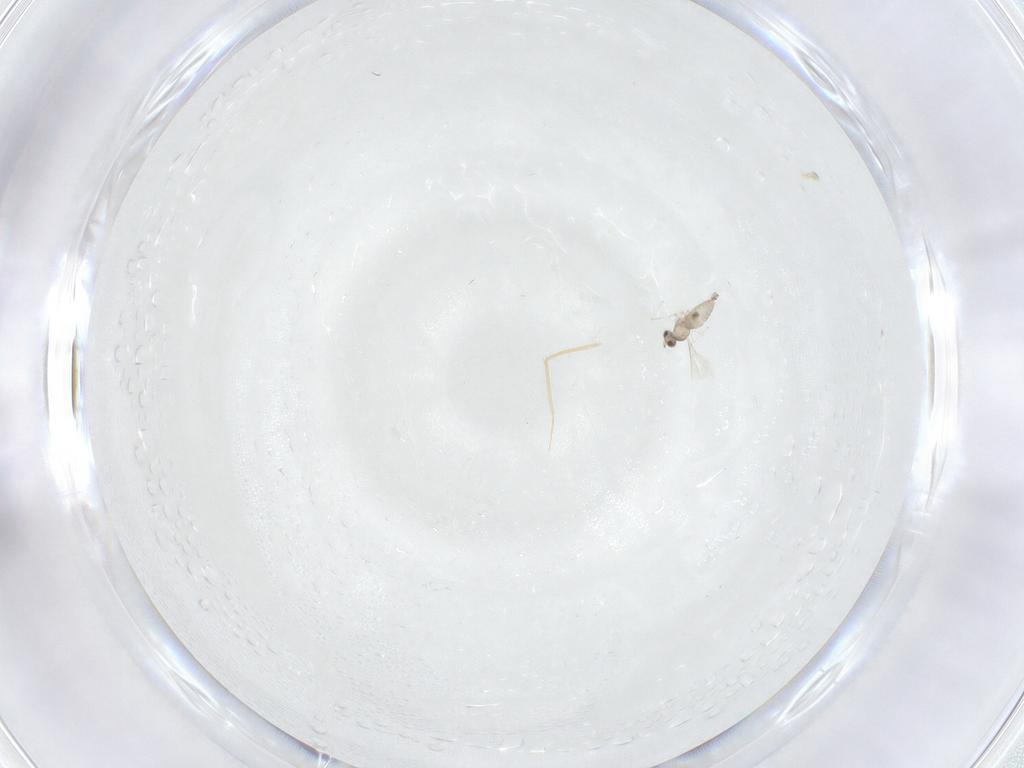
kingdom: Animalia
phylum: Arthropoda
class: Insecta
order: Diptera
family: Cecidomyiidae
